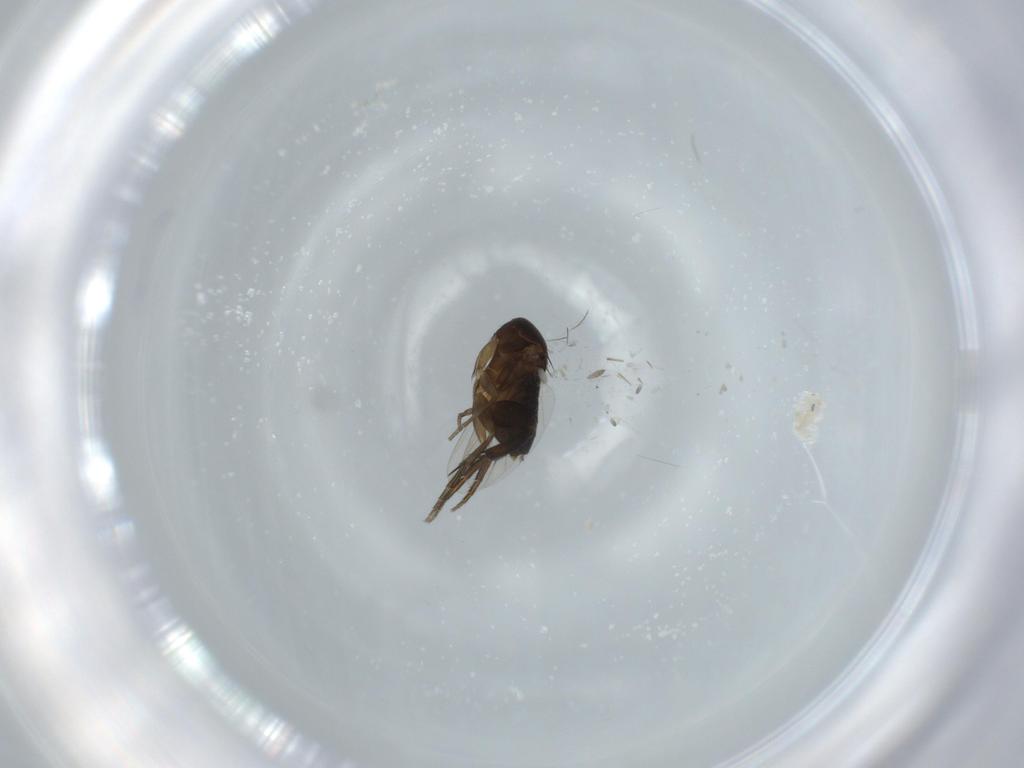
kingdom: Animalia
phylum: Arthropoda
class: Insecta
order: Diptera
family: Phoridae
